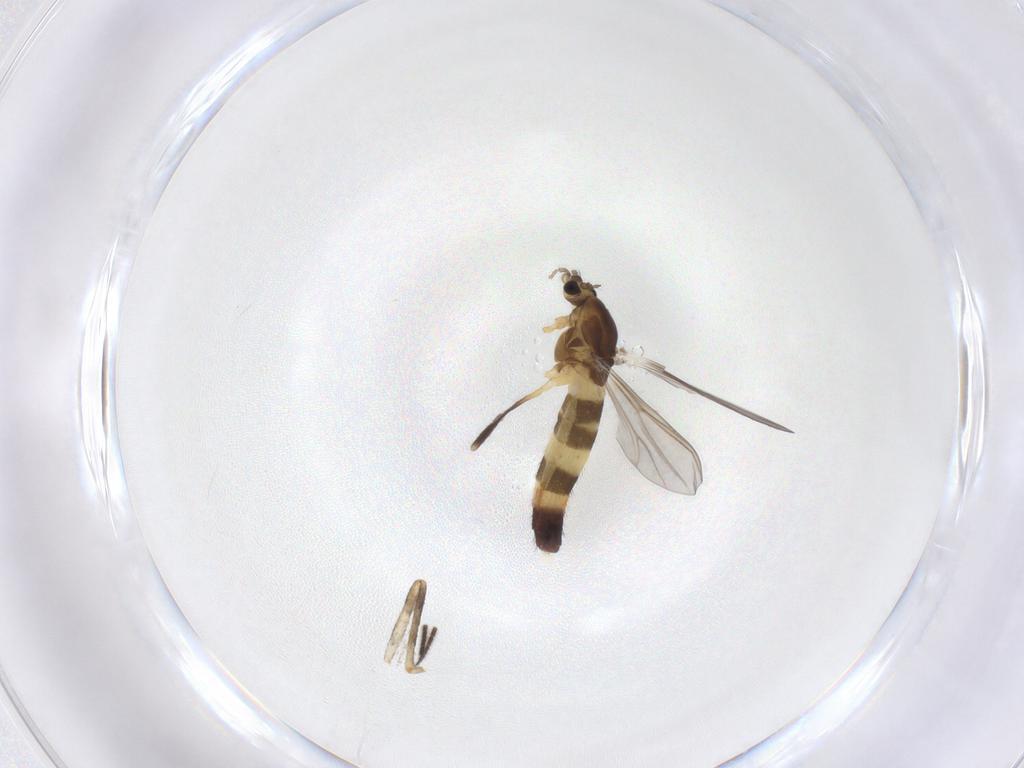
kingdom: Animalia
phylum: Arthropoda
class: Insecta
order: Diptera
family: Chironomidae
